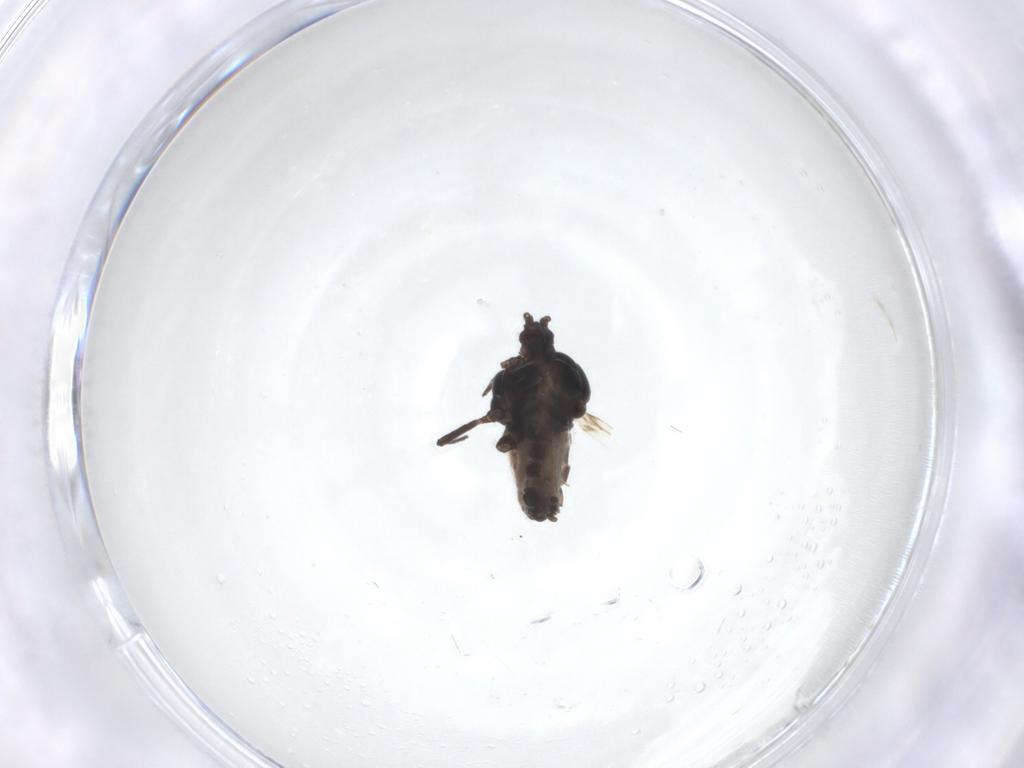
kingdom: Animalia
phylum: Arthropoda
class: Insecta
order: Hemiptera
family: Aphididae
